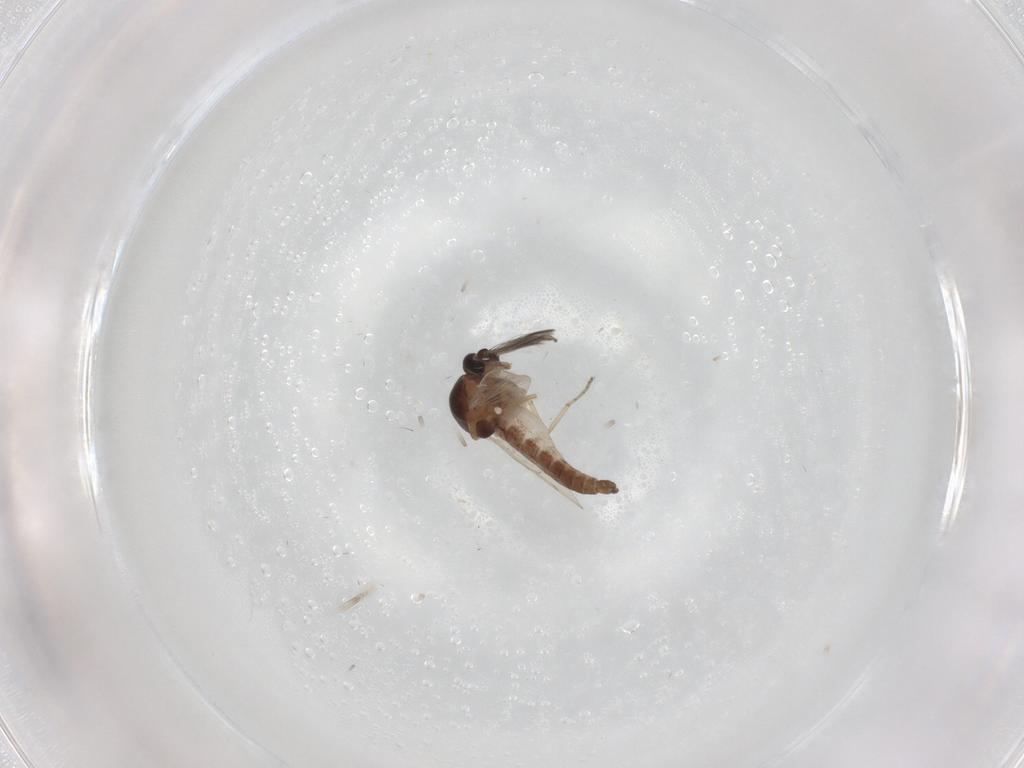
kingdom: Animalia
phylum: Arthropoda
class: Insecta
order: Diptera
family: Ceratopogonidae
